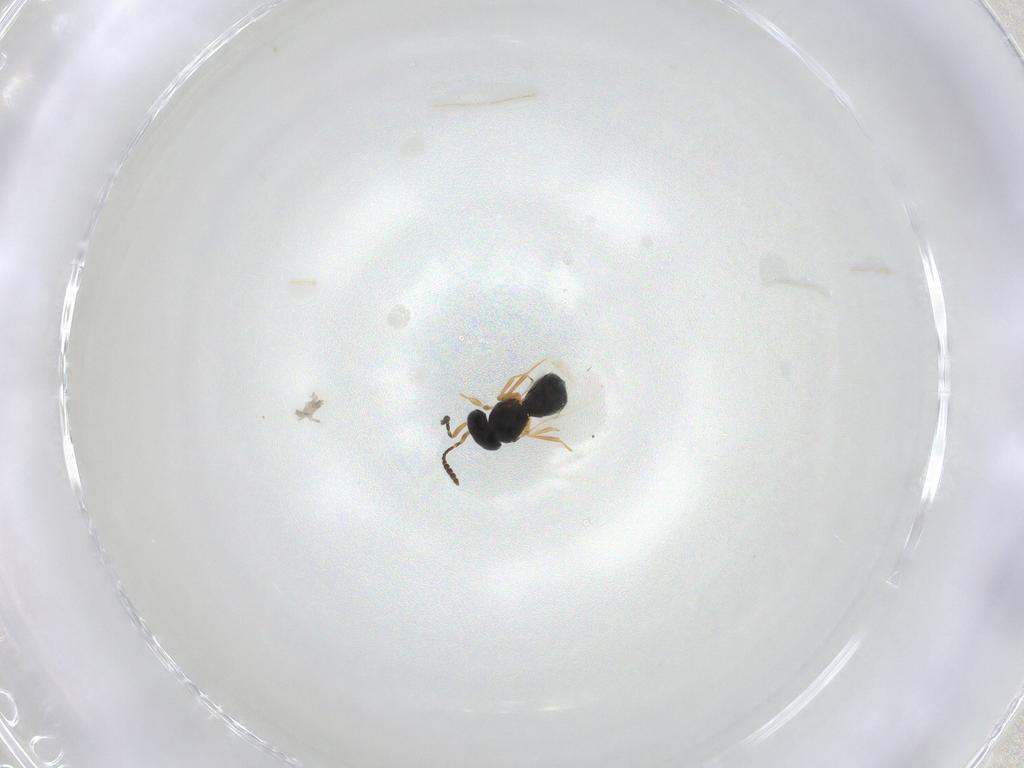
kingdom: Animalia
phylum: Arthropoda
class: Insecta
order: Hymenoptera
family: Scelionidae
